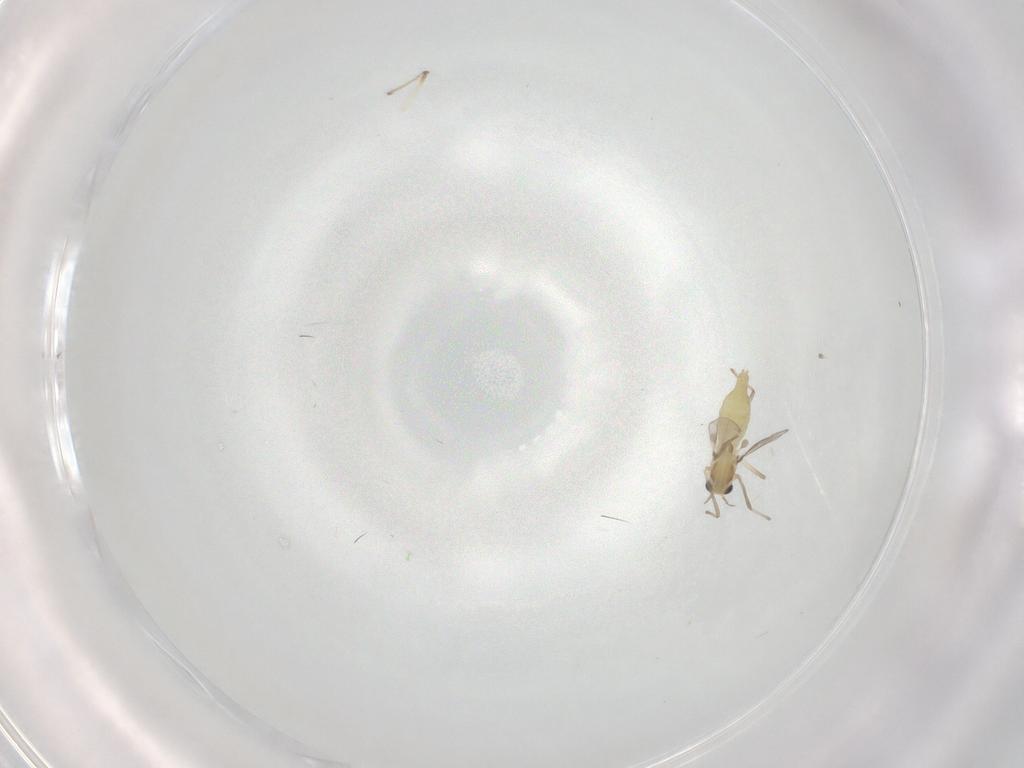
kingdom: Animalia
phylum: Arthropoda
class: Insecta
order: Diptera
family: Chironomidae
